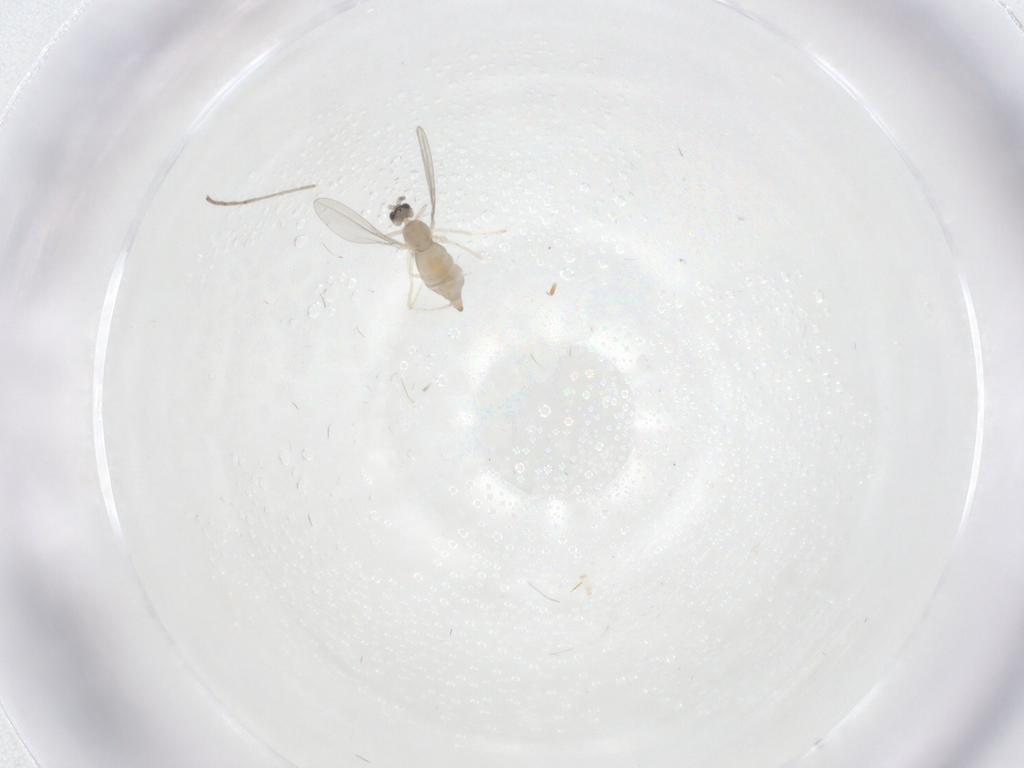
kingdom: Animalia
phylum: Arthropoda
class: Insecta
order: Diptera
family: Cecidomyiidae
